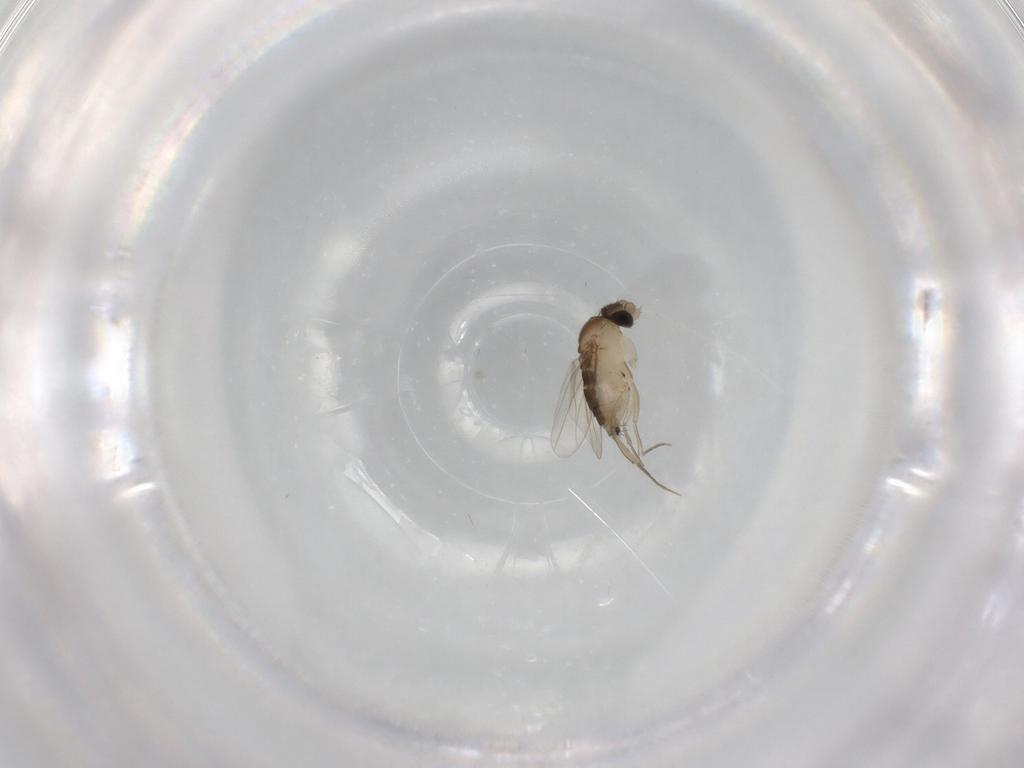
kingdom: Animalia
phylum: Arthropoda
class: Insecta
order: Diptera
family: Phoridae
